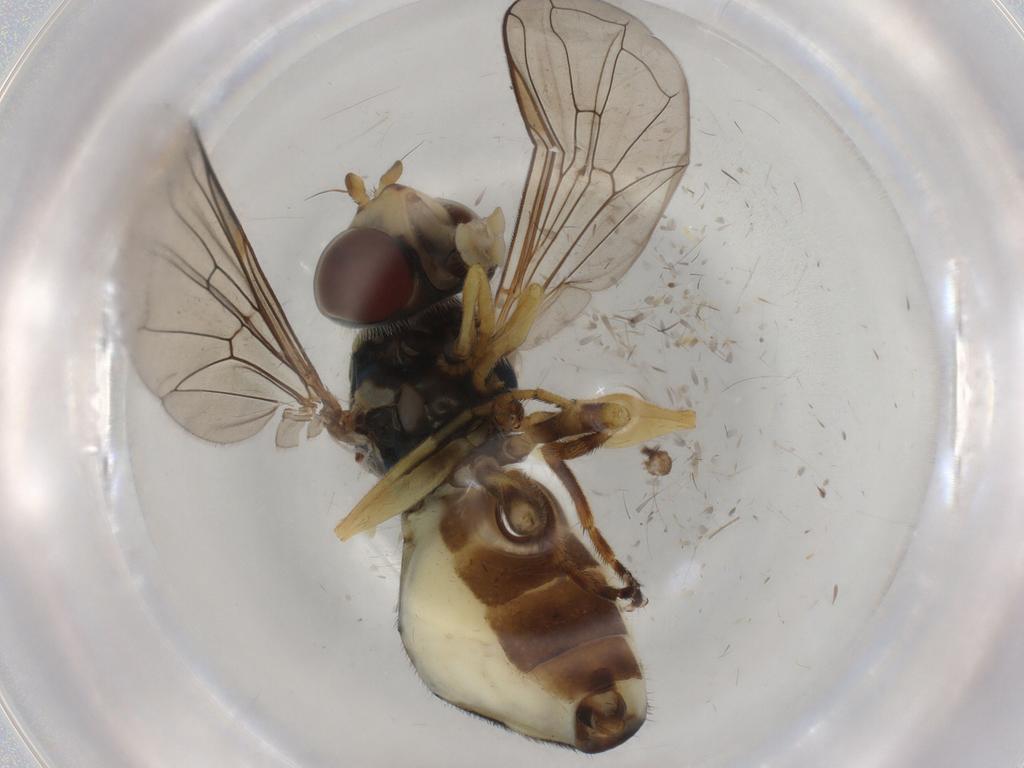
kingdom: Animalia
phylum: Arthropoda
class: Insecta
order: Diptera
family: Syrphidae
